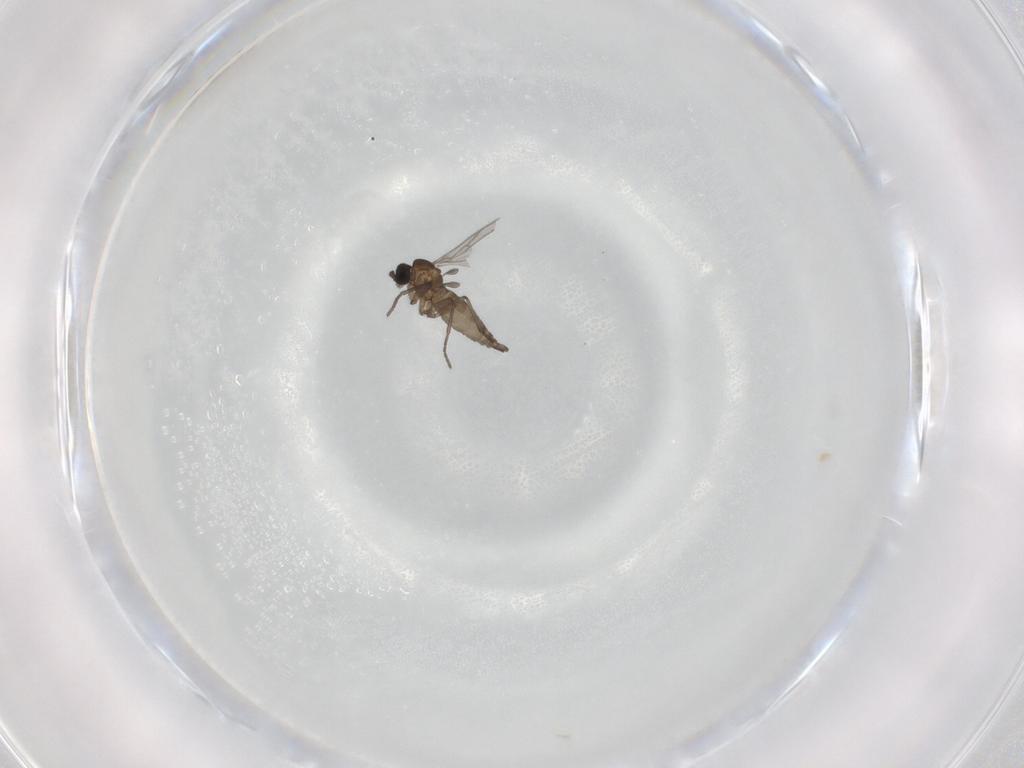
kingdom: Animalia
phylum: Arthropoda
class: Insecta
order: Diptera
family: Cecidomyiidae
